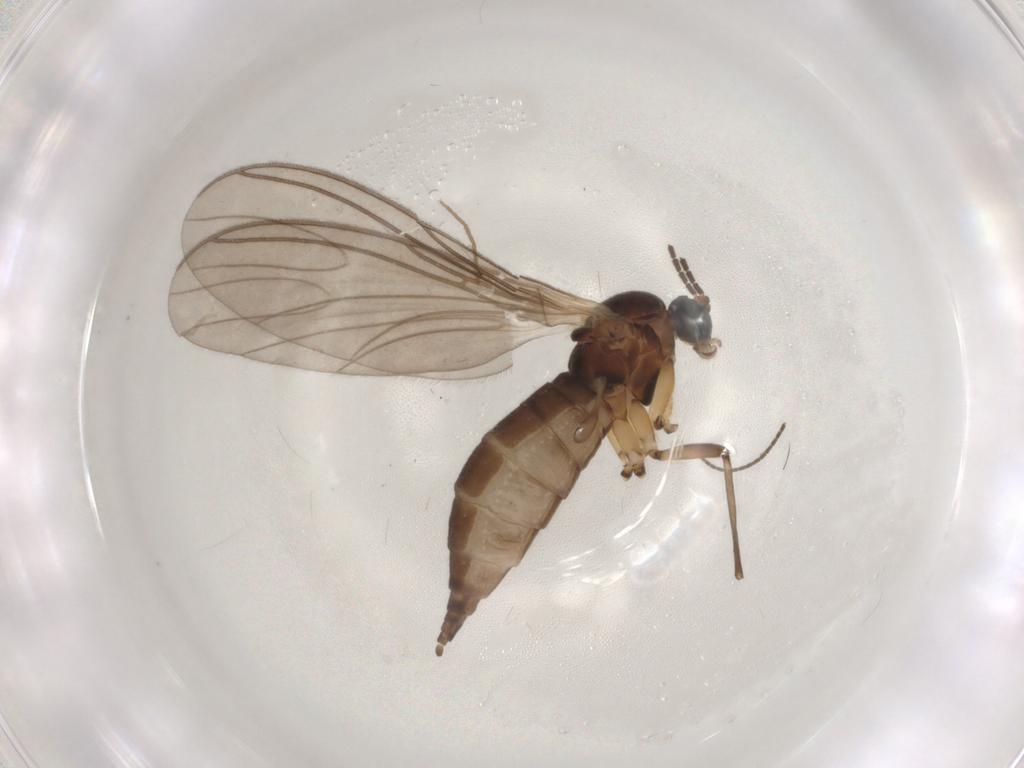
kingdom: Animalia
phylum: Arthropoda
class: Insecta
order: Diptera
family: Sciaridae
